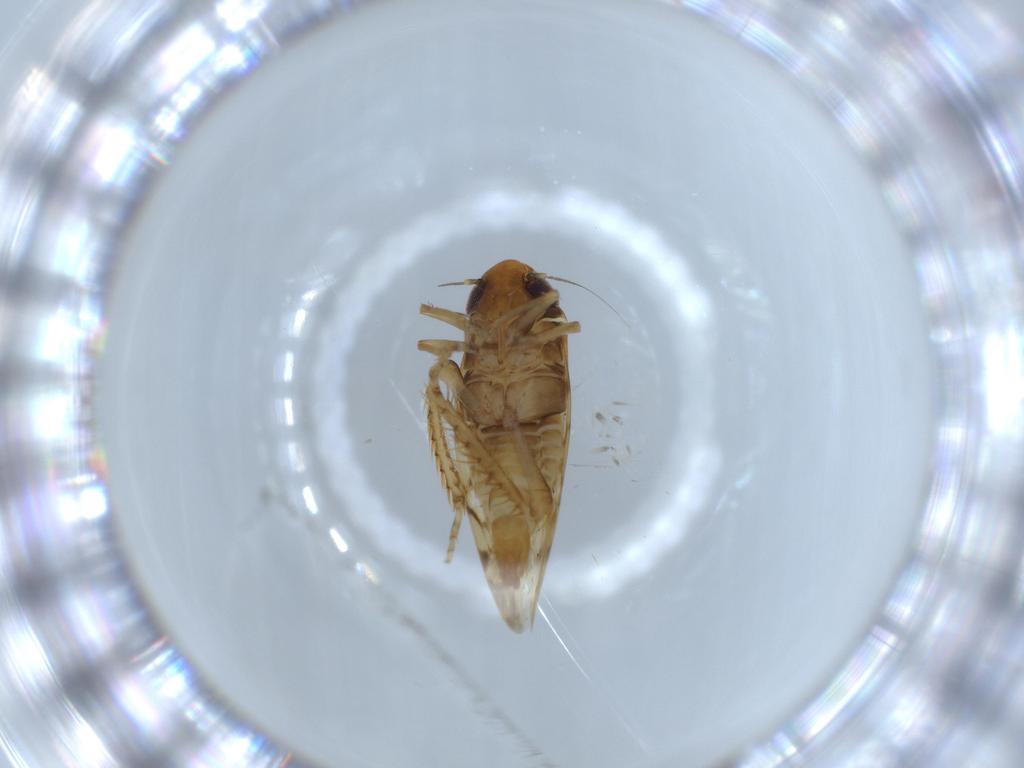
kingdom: Animalia
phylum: Arthropoda
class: Insecta
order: Hemiptera
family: Cicadellidae
